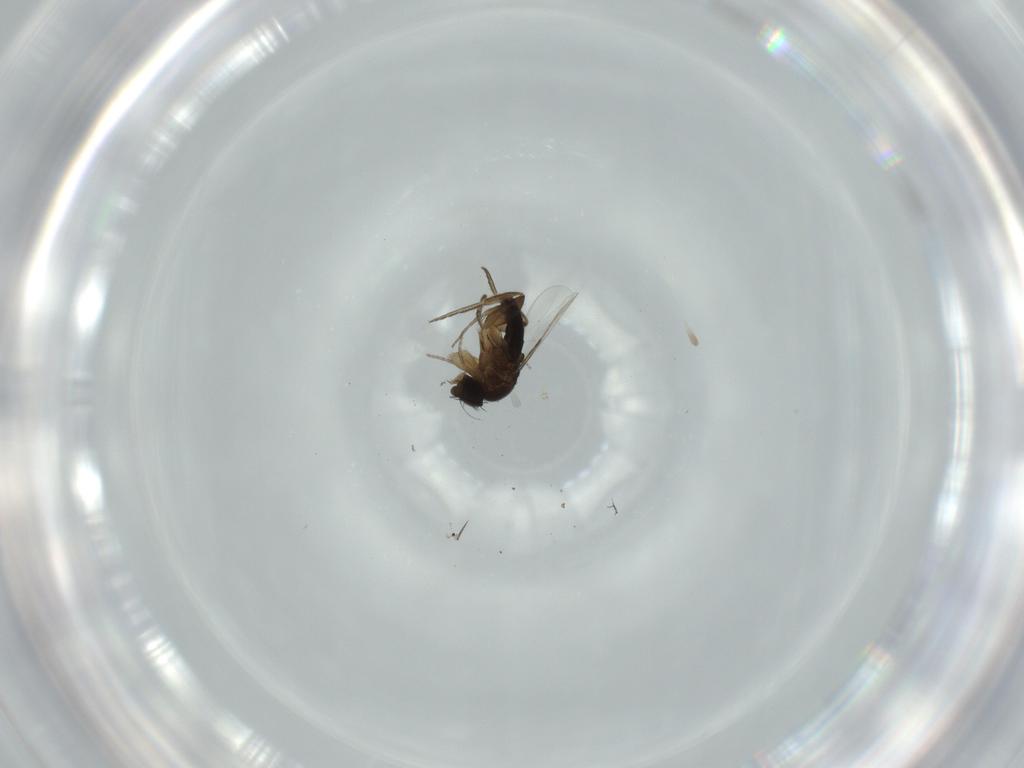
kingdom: Animalia
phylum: Arthropoda
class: Insecta
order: Diptera
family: Phoridae
